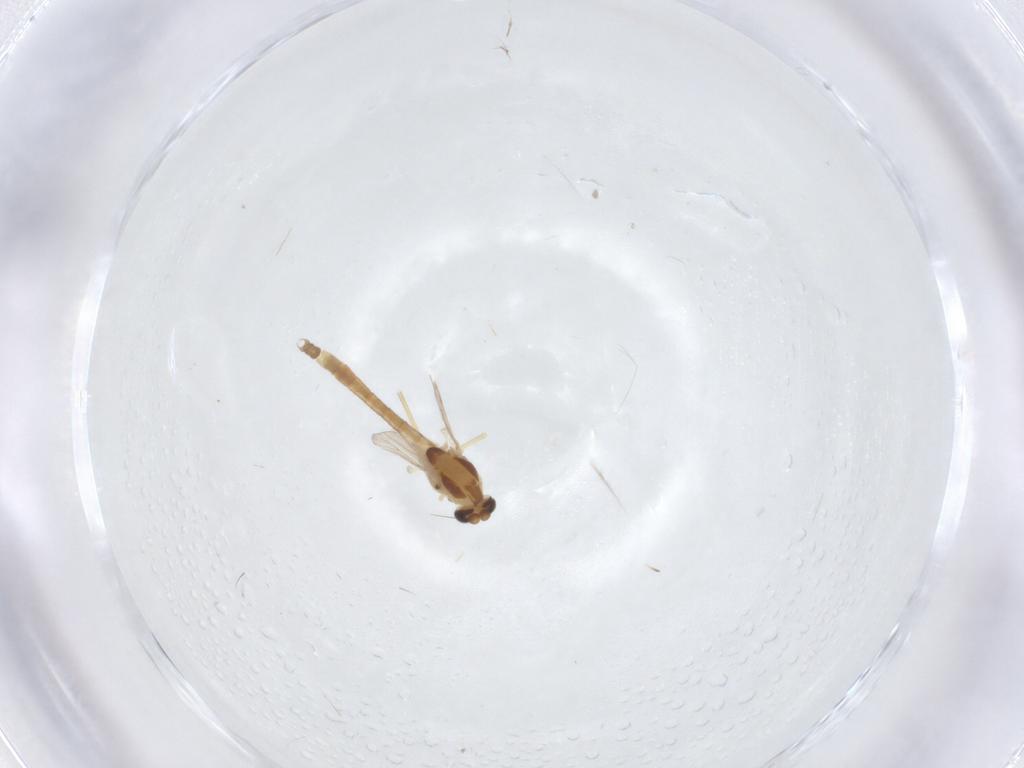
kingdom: Animalia
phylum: Arthropoda
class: Insecta
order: Diptera
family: Chironomidae
